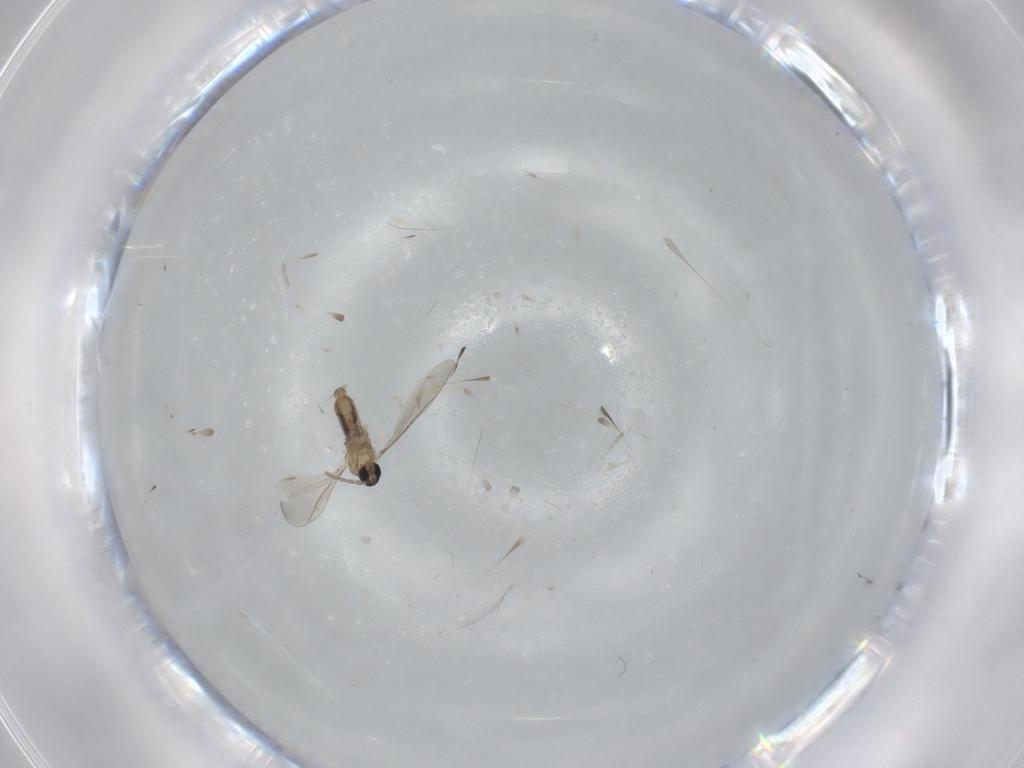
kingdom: Animalia
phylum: Arthropoda
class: Insecta
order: Diptera
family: Cecidomyiidae
